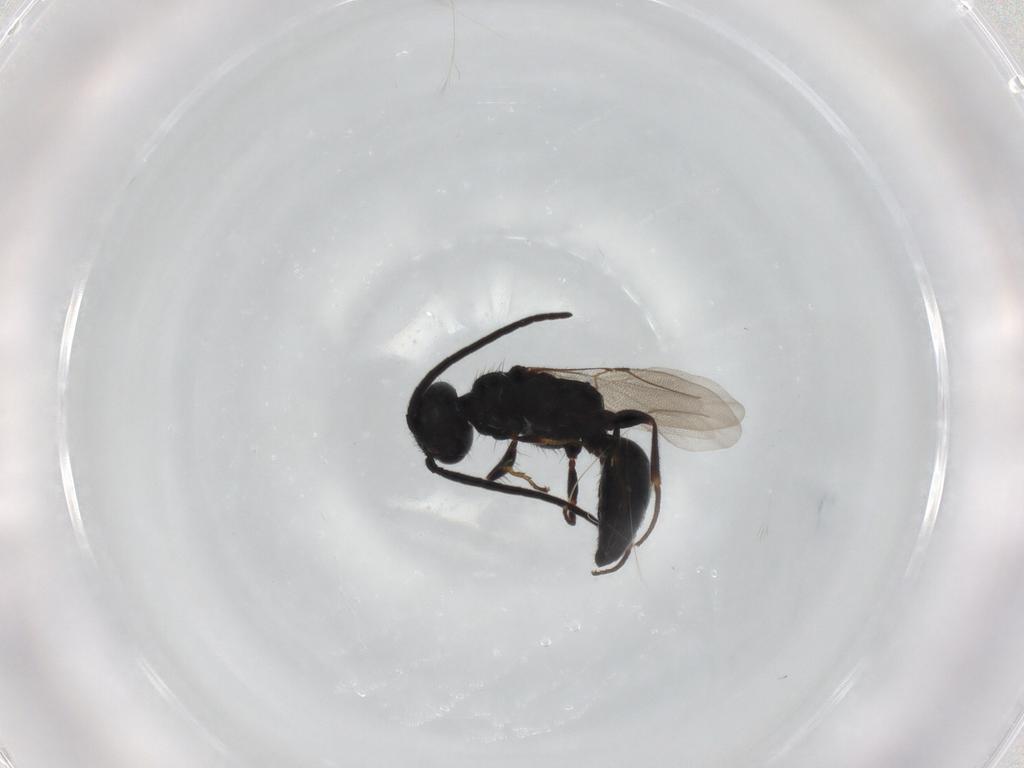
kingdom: Animalia
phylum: Arthropoda
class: Insecta
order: Hymenoptera
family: Bethylidae
